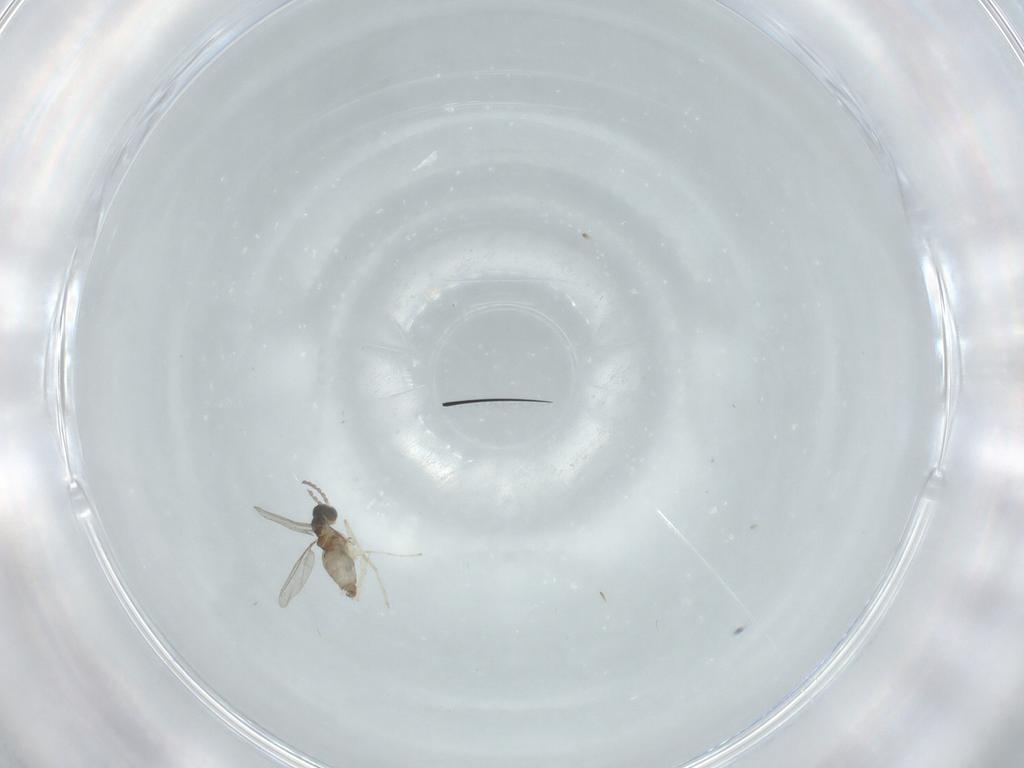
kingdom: Animalia
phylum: Arthropoda
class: Insecta
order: Diptera
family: Cecidomyiidae
